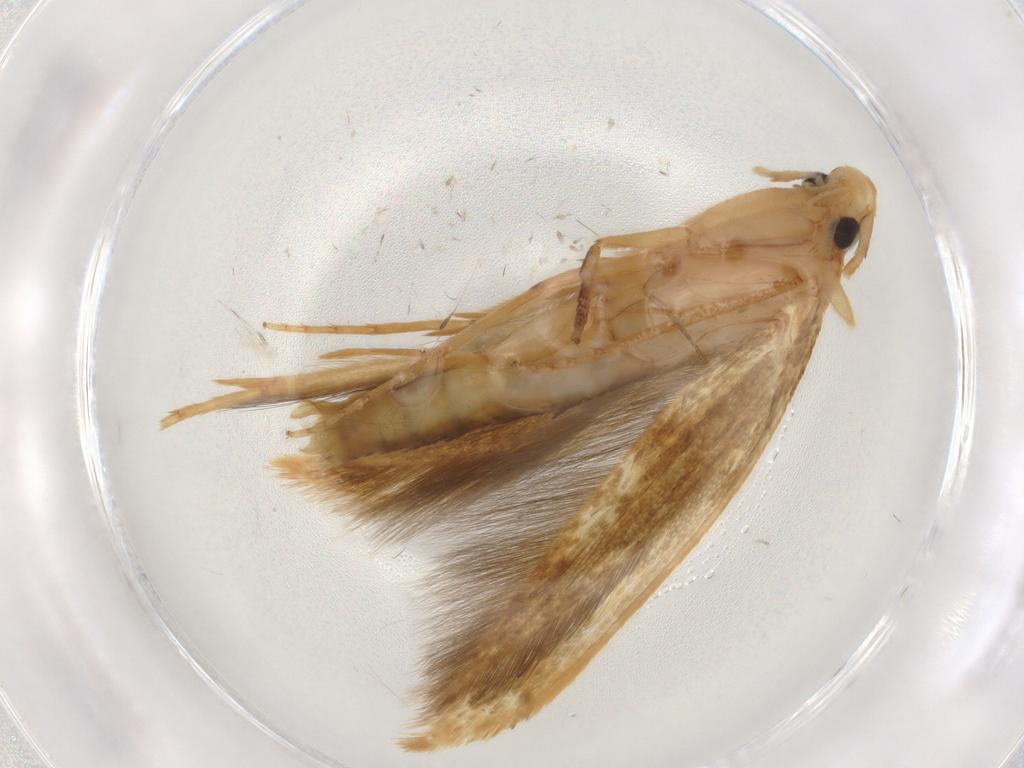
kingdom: Animalia
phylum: Arthropoda
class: Insecta
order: Lepidoptera
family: Tineidae
